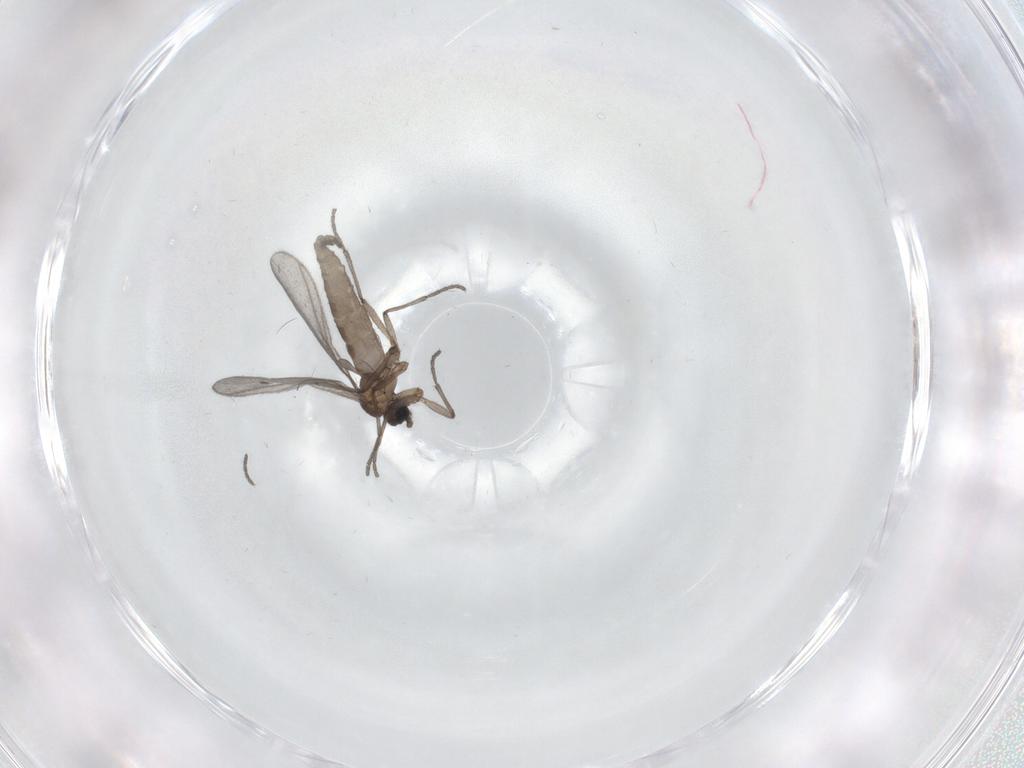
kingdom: Animalia
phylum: Arthropoda
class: Insecta
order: Diptera
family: Sciaridae
